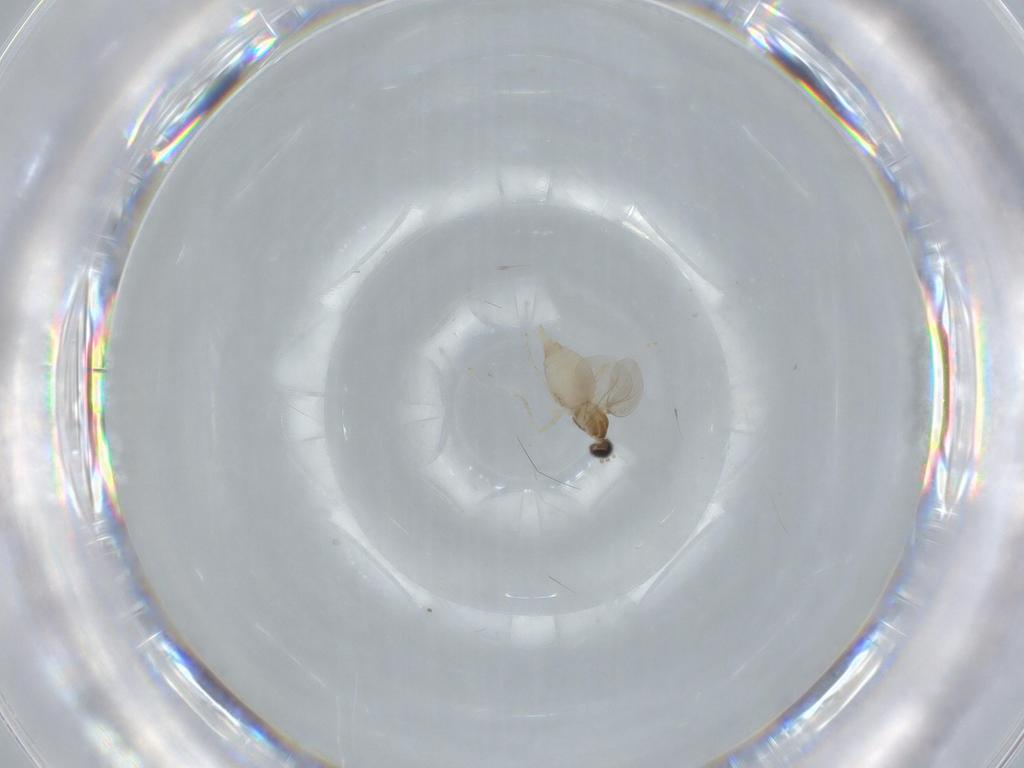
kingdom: Animalia
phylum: Arthropoda
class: Insecta
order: Diptera
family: Cecidomyiidae
